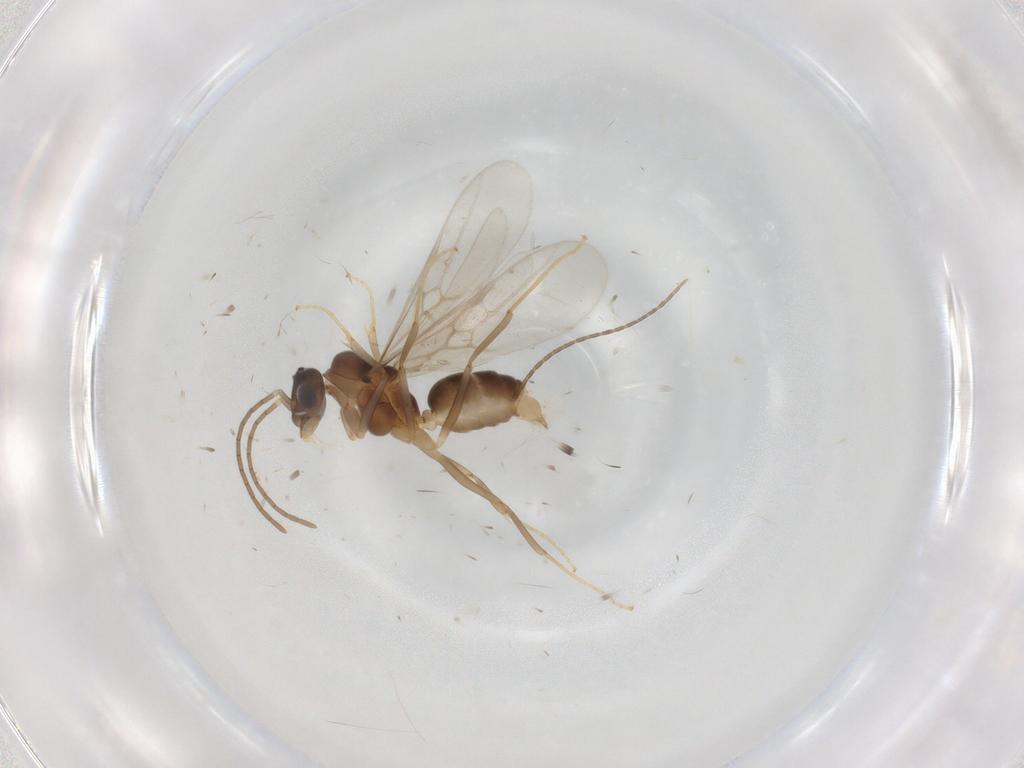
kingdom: Animalia
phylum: Arthropoda
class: Insecta
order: Hymenoptera
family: Formicidae
